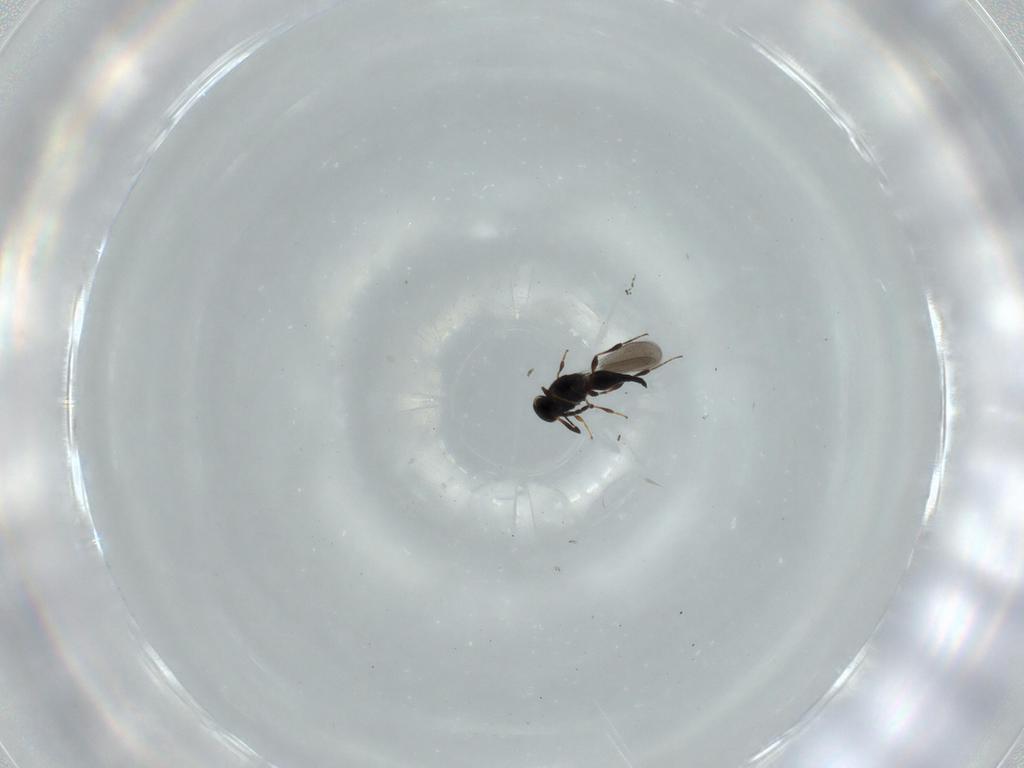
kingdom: Animalia
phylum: Arthropoda
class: Insecta
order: Hymenoptera
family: Platygastridae
